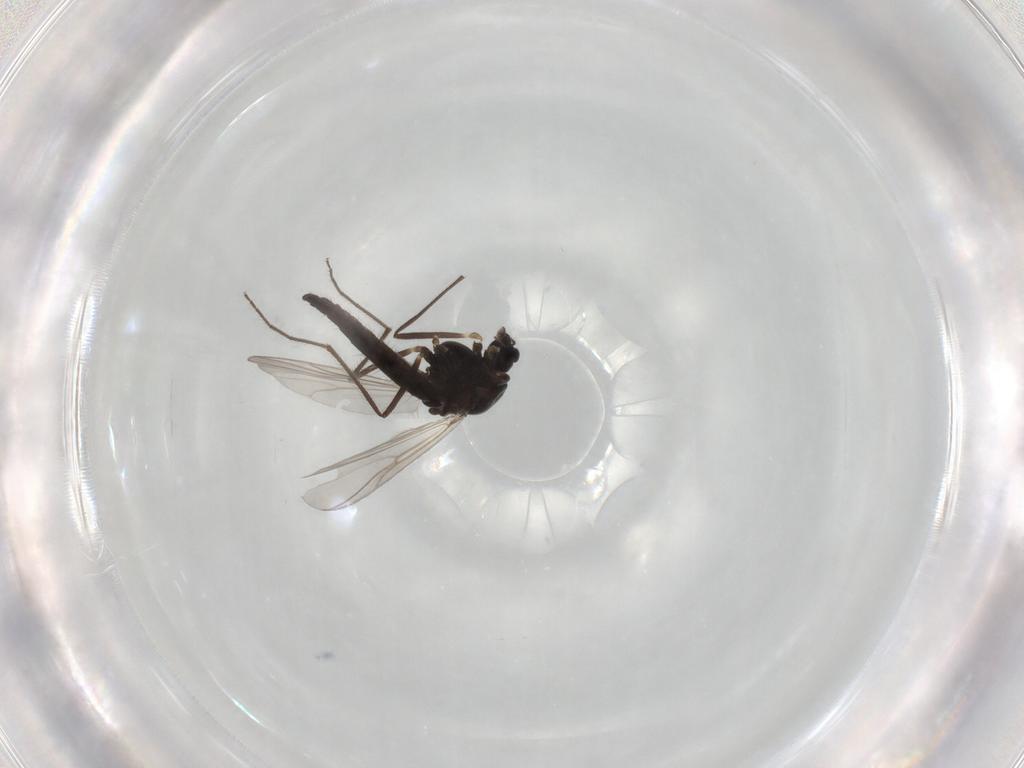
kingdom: Animalia
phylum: Arthropoda
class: Insecta
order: Diptera
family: Chironomidae
